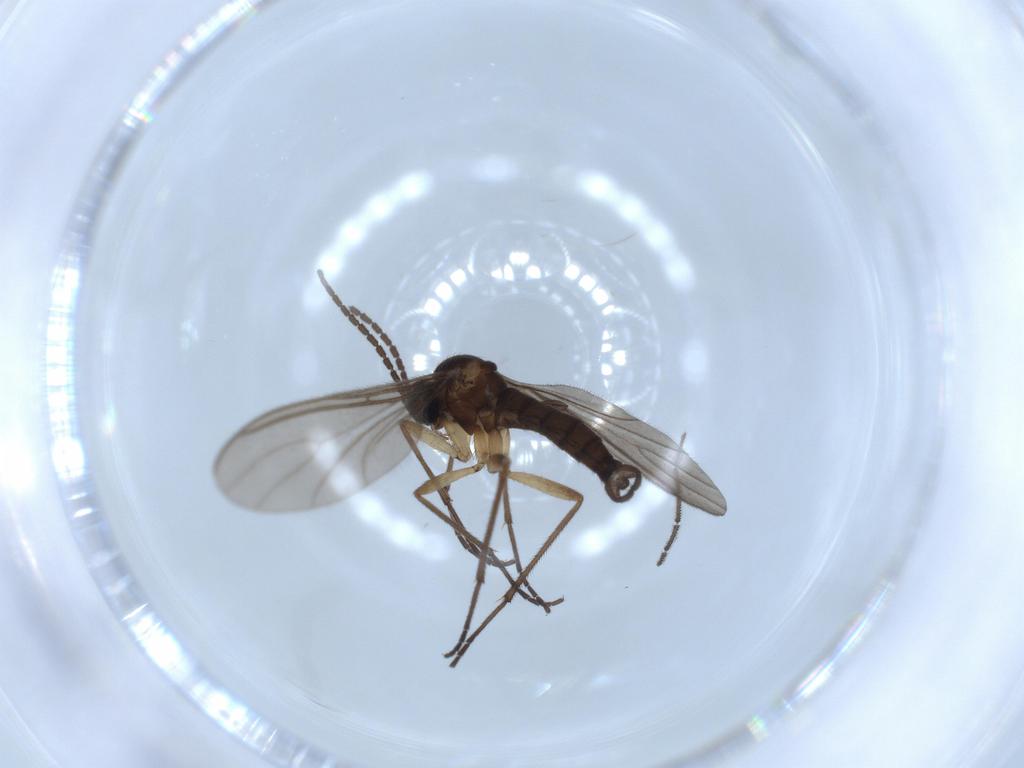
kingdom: Animalia
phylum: Arthropoda
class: Insecta
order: Diptera
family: Sciaridae
